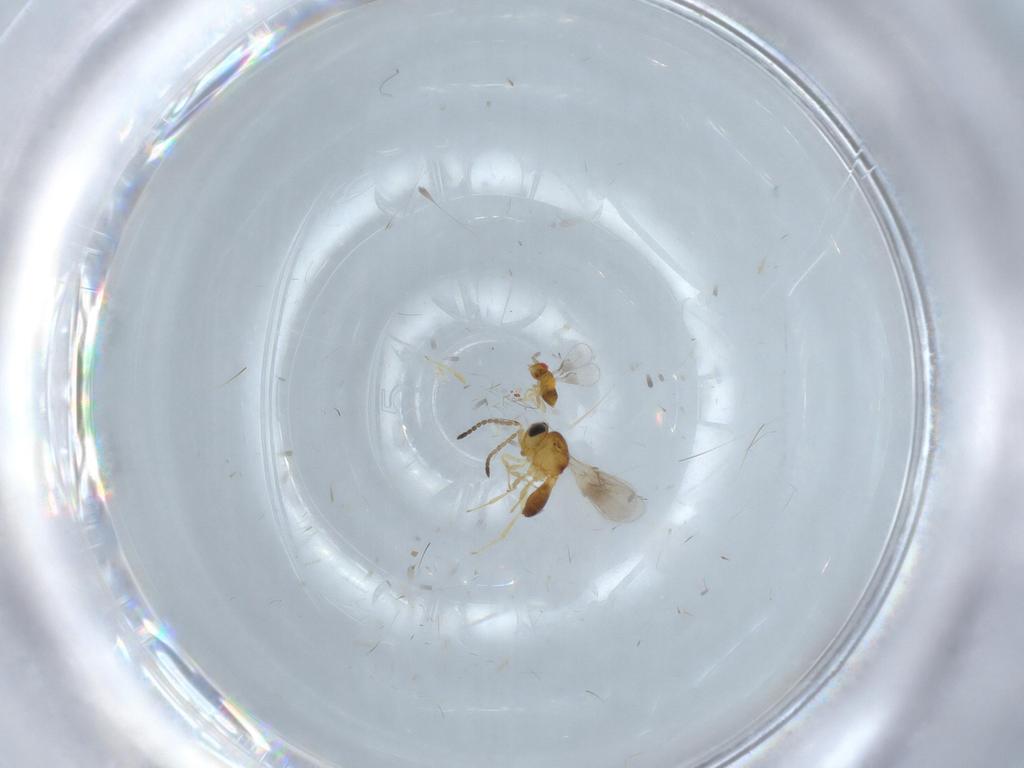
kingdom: Animalia
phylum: Arthropoda
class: Insecta
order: Hymenoptera
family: Scelionidae
